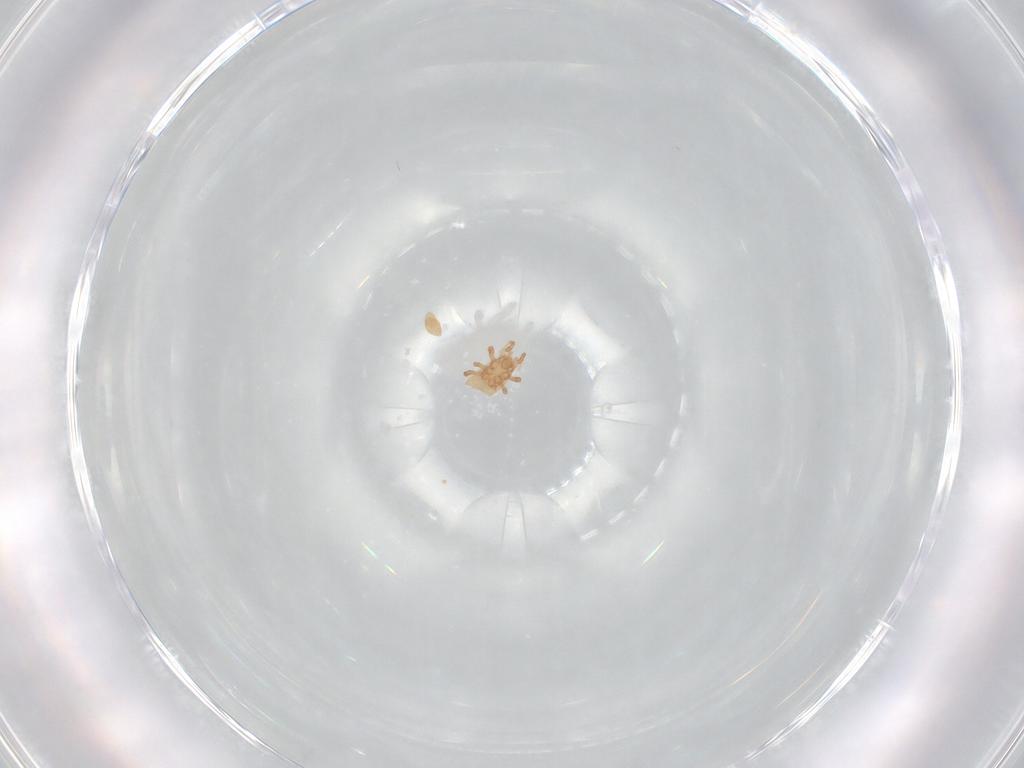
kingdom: Animalia
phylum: Arthropoda
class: Arachnida
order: Mesostigmata
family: Ascidae
